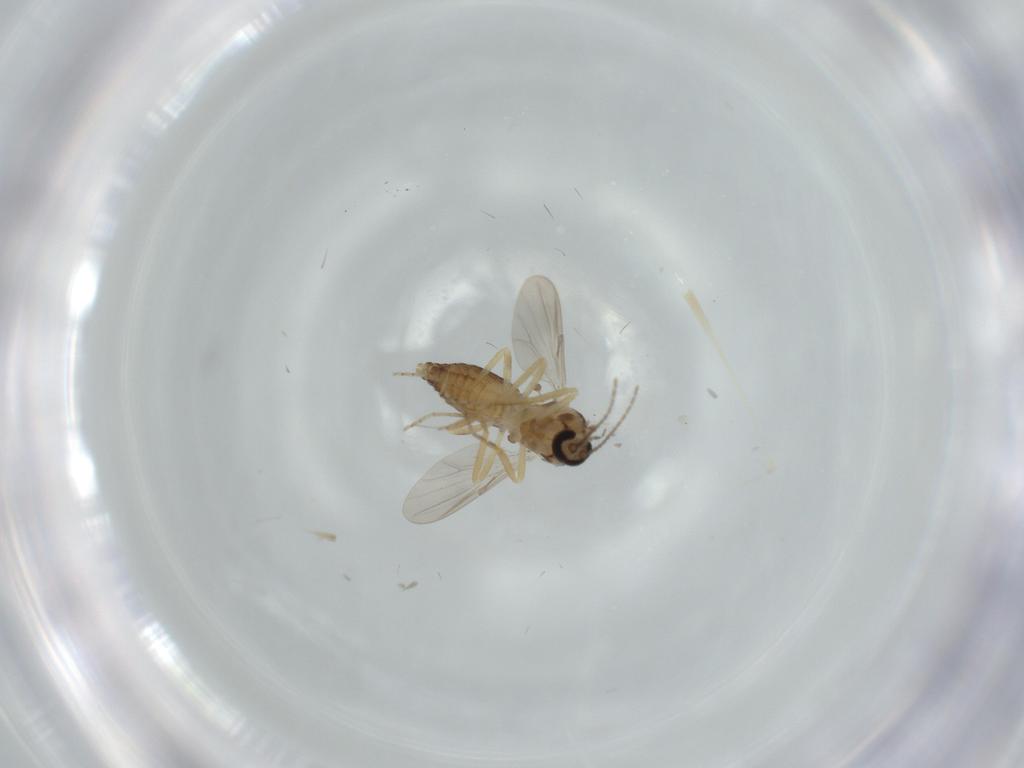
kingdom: Animalia
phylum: Arthropoda
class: Insecta
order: Diptera
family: Ceratopogonidae
